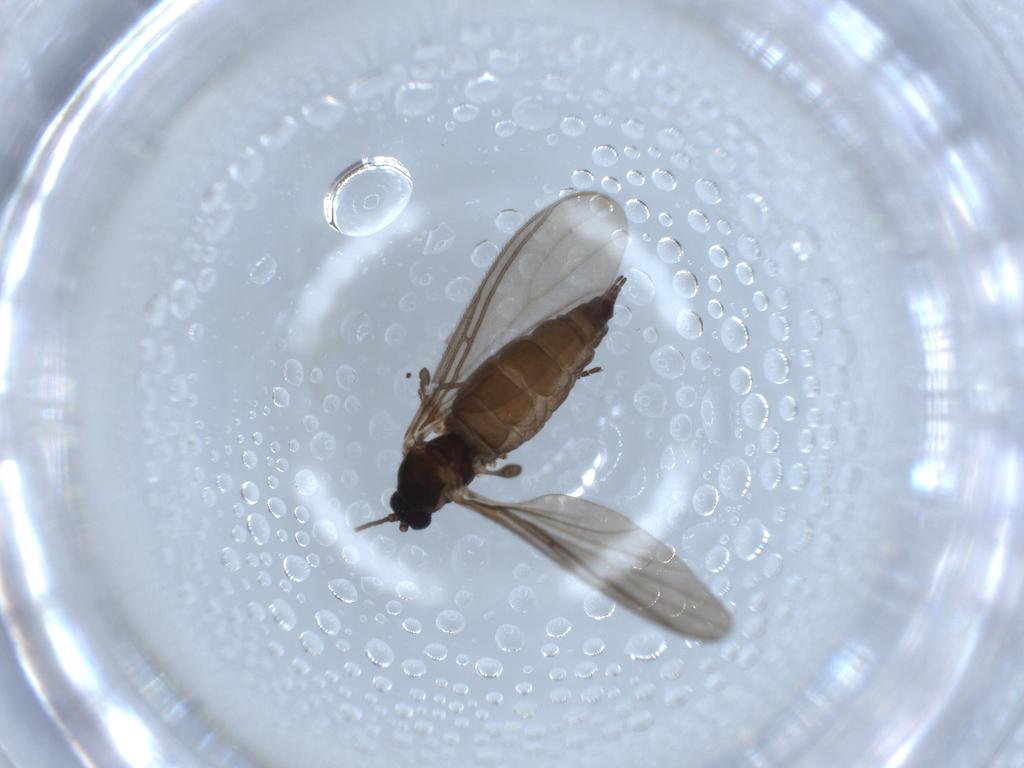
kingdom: Animalia
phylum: Arthropoda
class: Insecta
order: Diptera
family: Sciaridae
